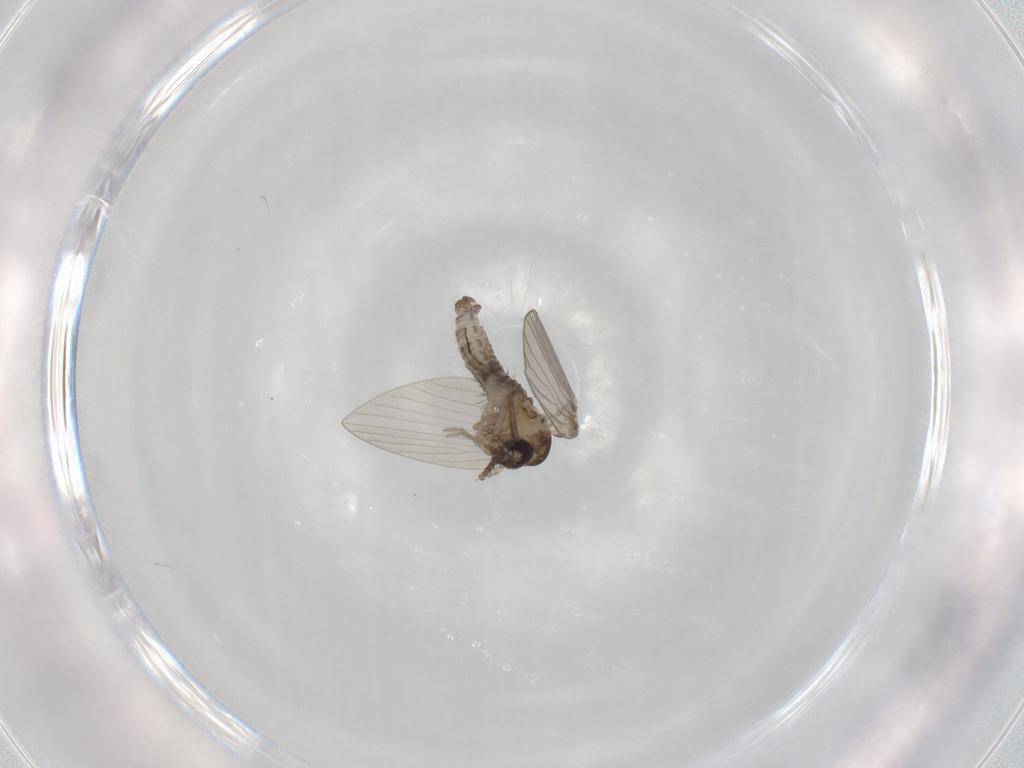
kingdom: Animalia
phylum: Arthropoda
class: Insecta
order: Diptera
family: Psychodidae
